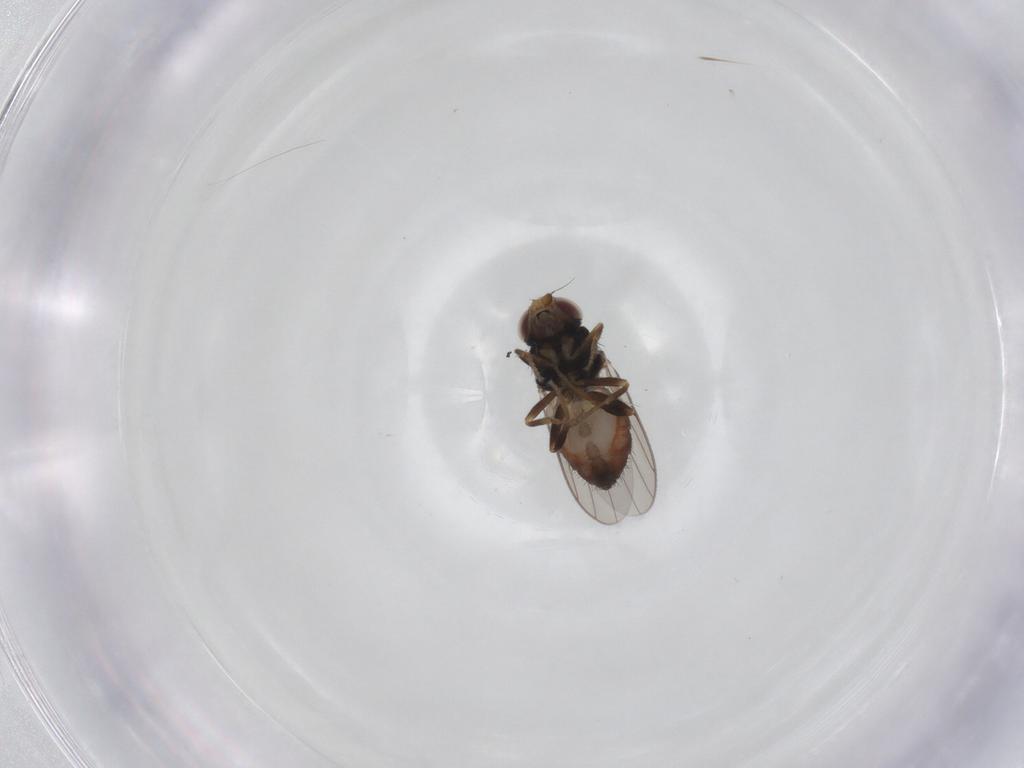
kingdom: Animalia
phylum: Arthropoda
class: Insecta
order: Diptera
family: Chloropidae
